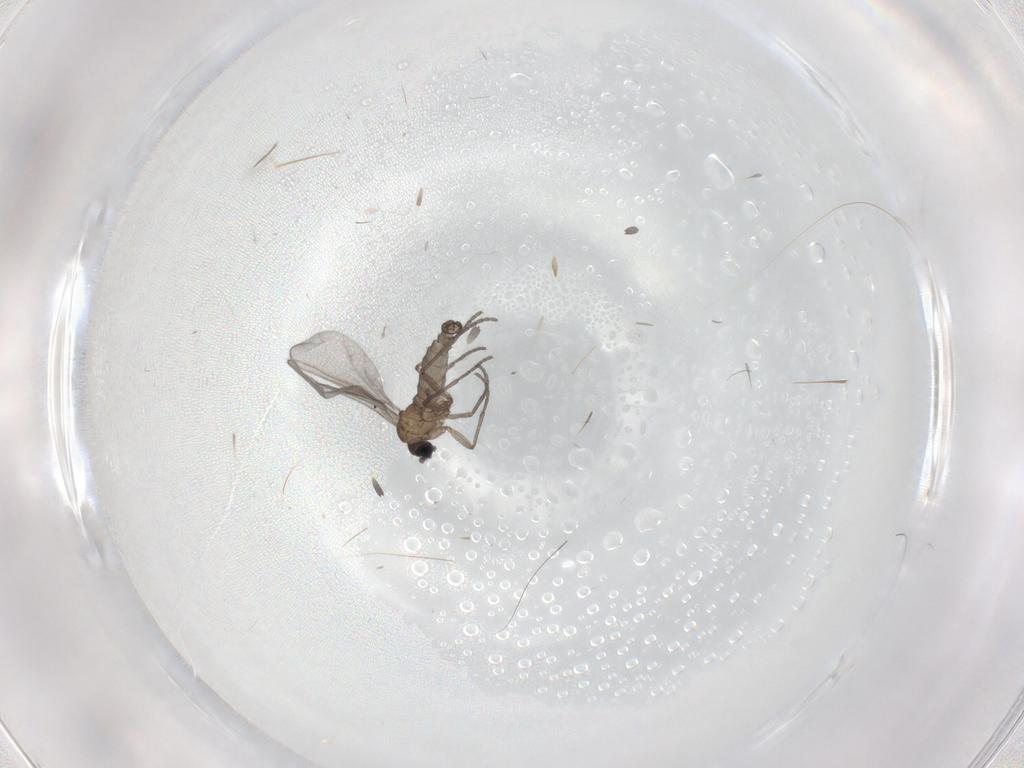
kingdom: Animalia
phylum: Arthropoda
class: Insecta
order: Diptera
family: Sciaridae
